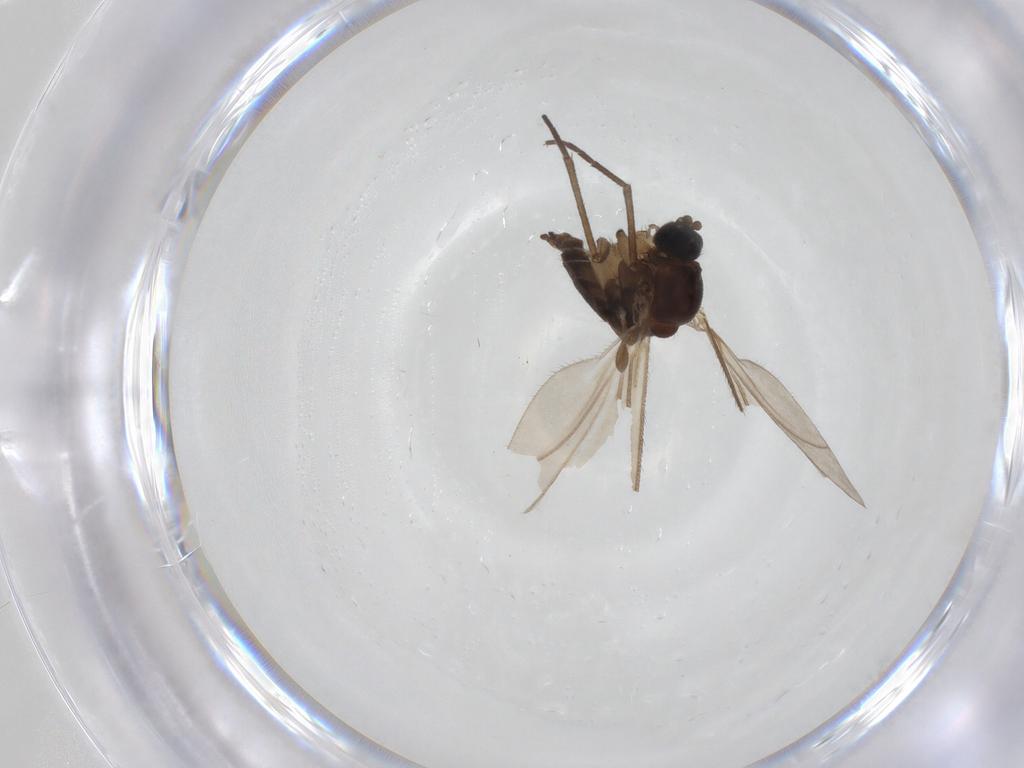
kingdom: Animalia
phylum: Arthropoda
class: Insecta
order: Diptera
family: Sciaridae
